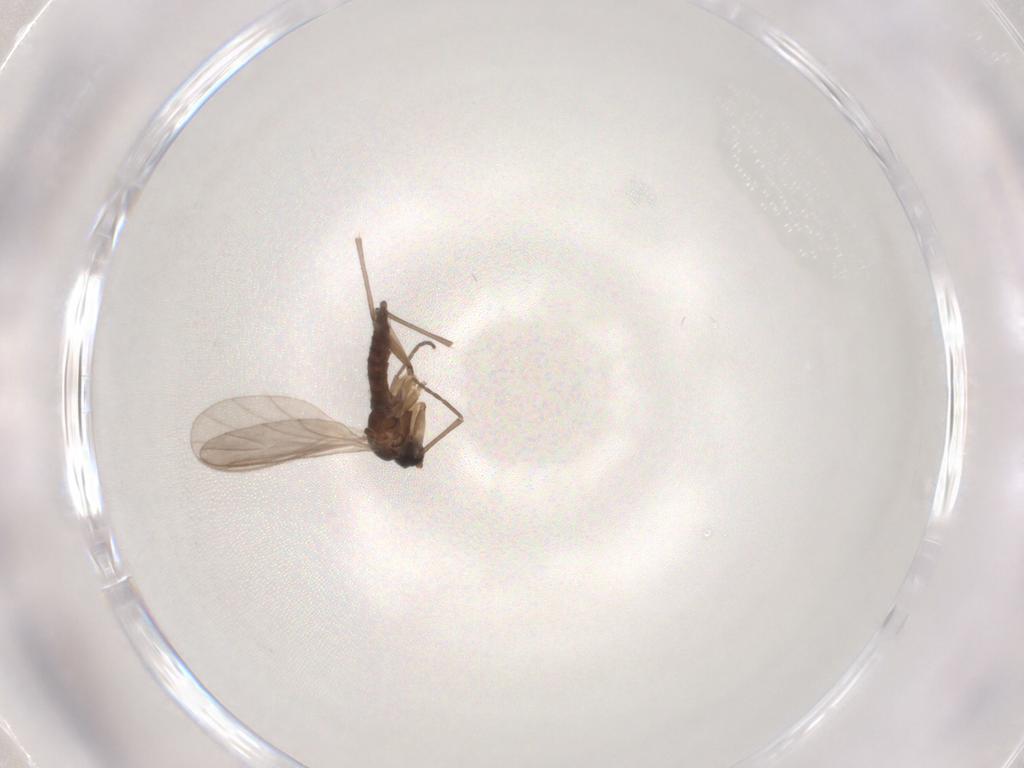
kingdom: Animalia
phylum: Arthropoda
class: Insecta
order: Diptera
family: Sciaridae
